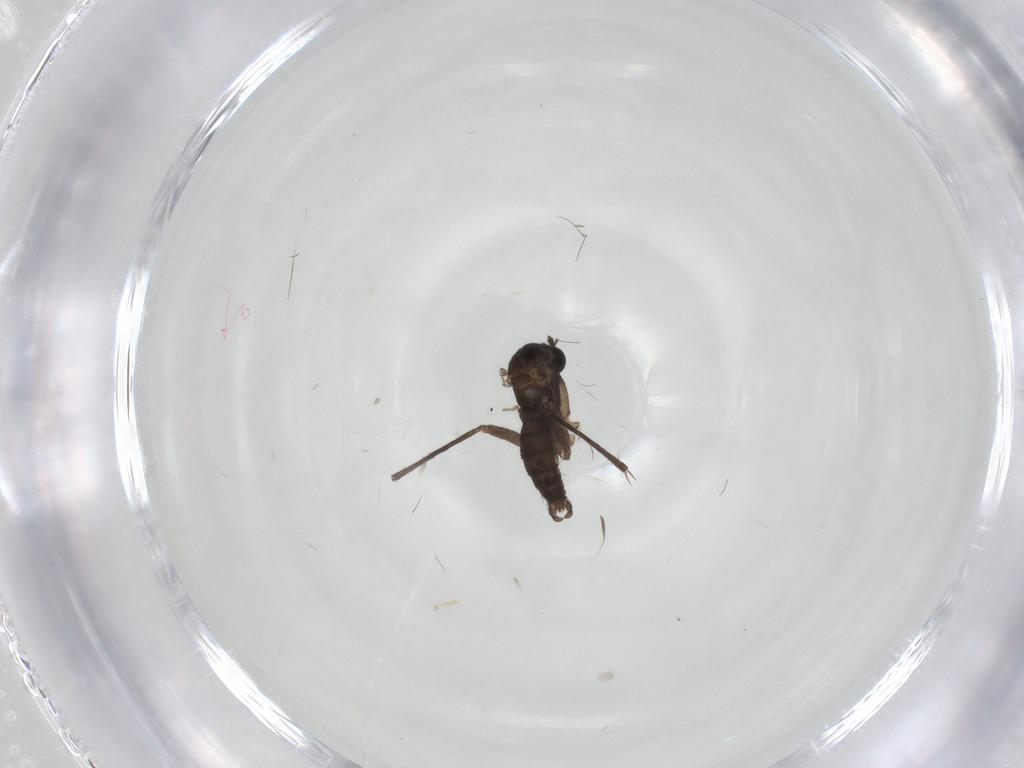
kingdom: Animalia
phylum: Arthropoda
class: Insecta
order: Diptera
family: Sciaridae
